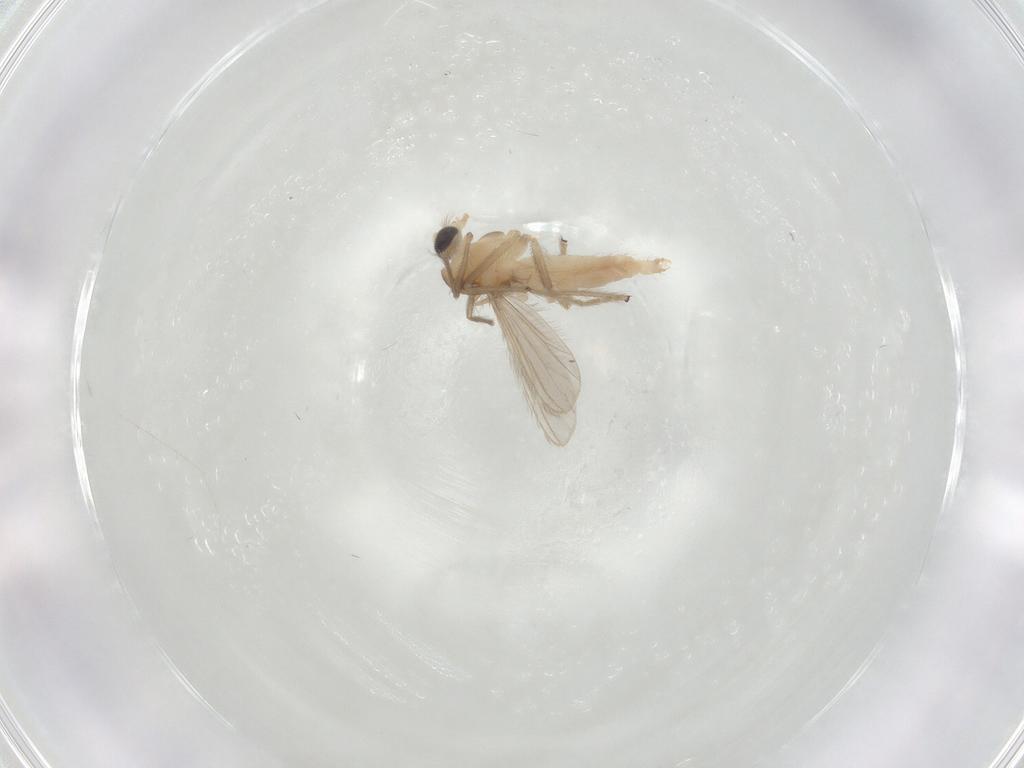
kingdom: Animalia
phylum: Arthropoda
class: Insecta
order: Diptera
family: Chironomidae
